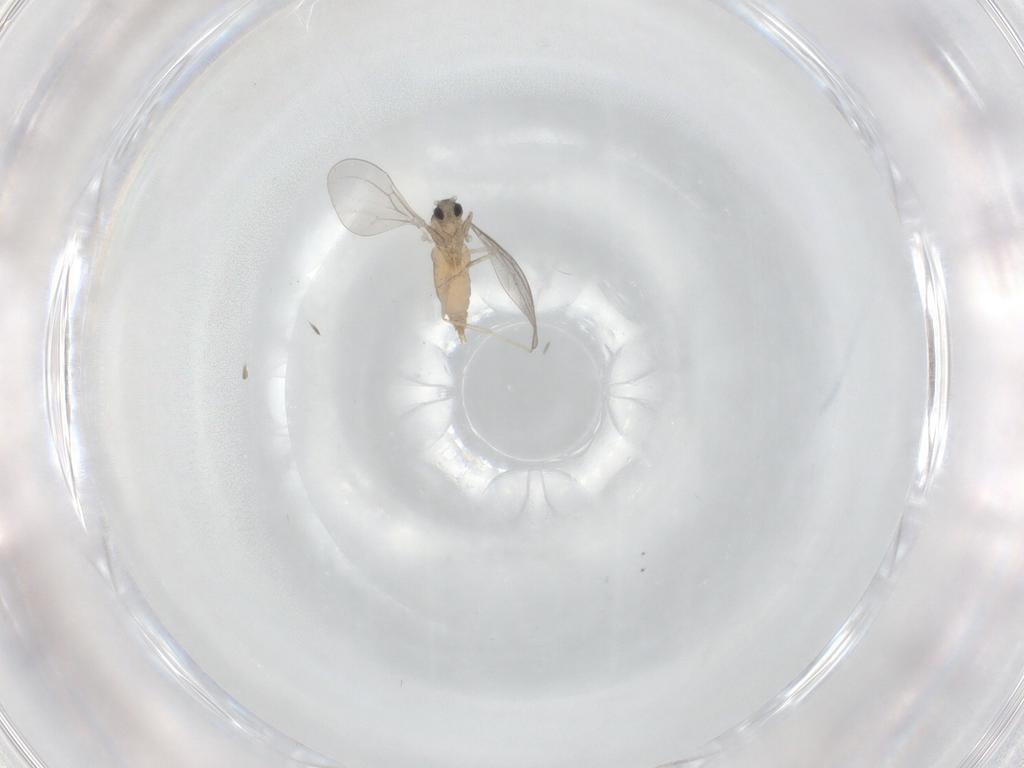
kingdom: Animalia
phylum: Arthropoda
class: Insecta
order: Diptera
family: Cecidomyiidae
